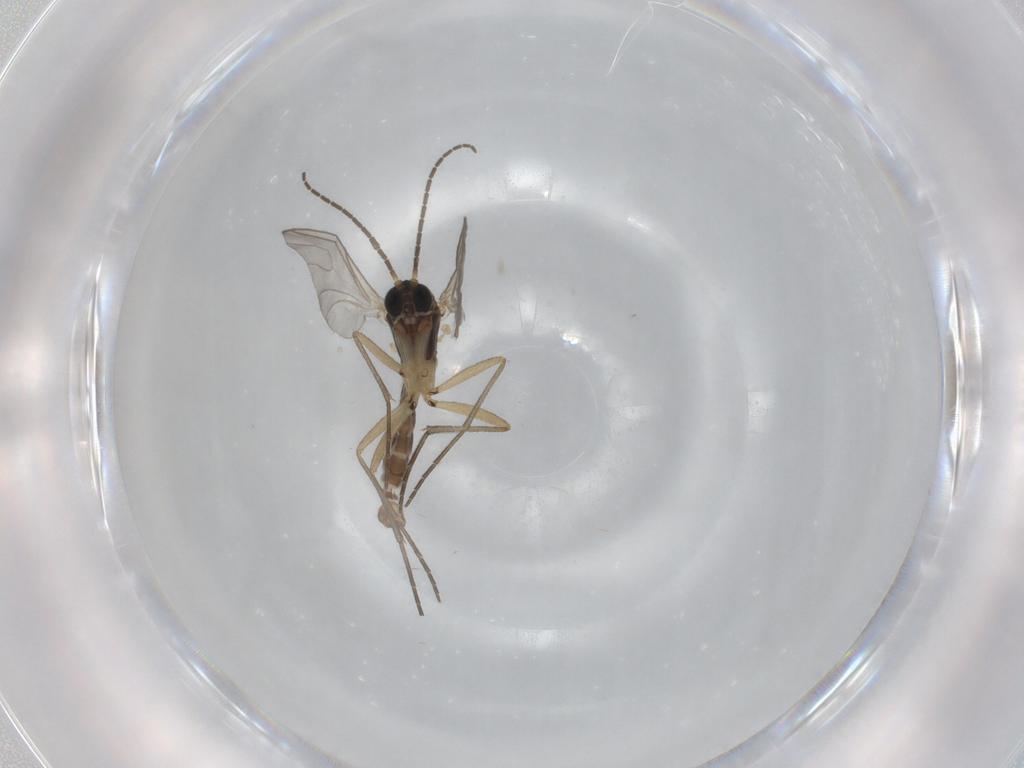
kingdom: Animalia
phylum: Arthropoda
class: Insecta
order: Diptera
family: Sciaridae
